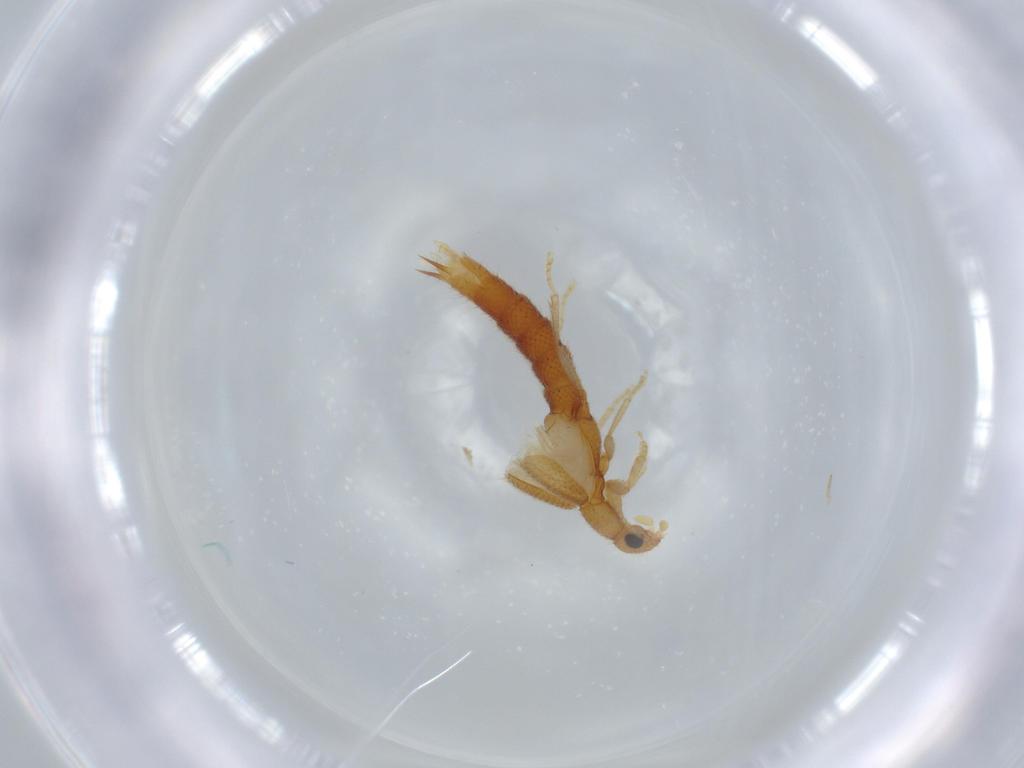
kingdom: Animalia
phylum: Arthropoda
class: Insecta
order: Coleoptera
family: Staphylinidae
